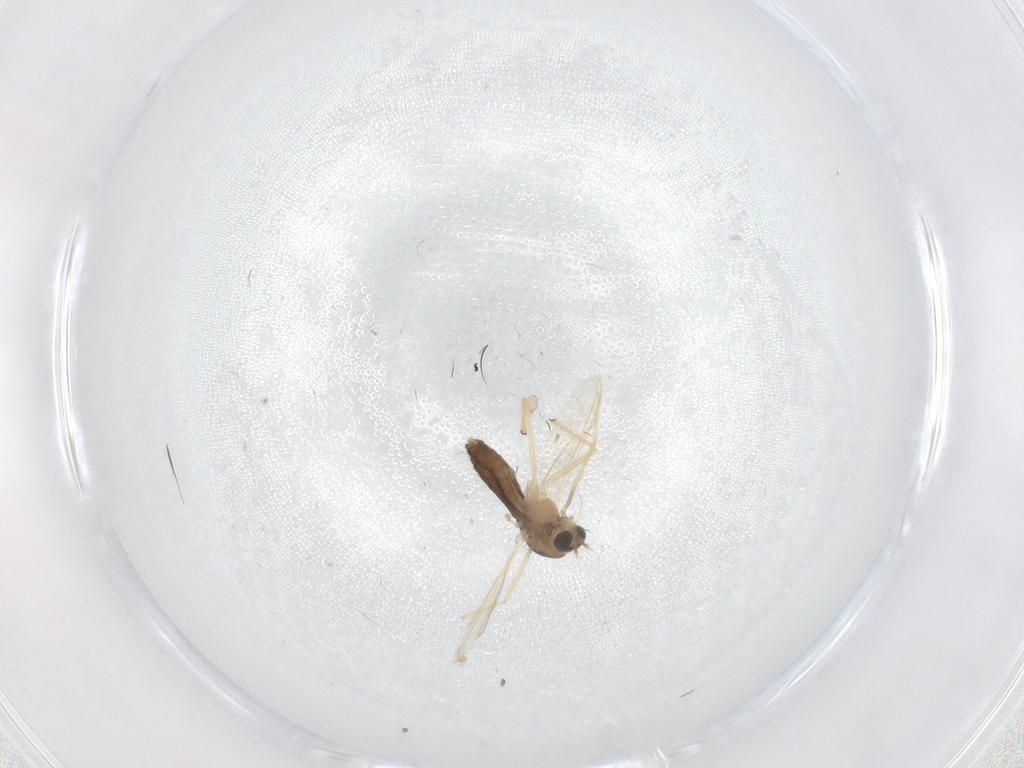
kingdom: Animalia
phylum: Arthropoda
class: Insecta
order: Diptera
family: Chironomidae
